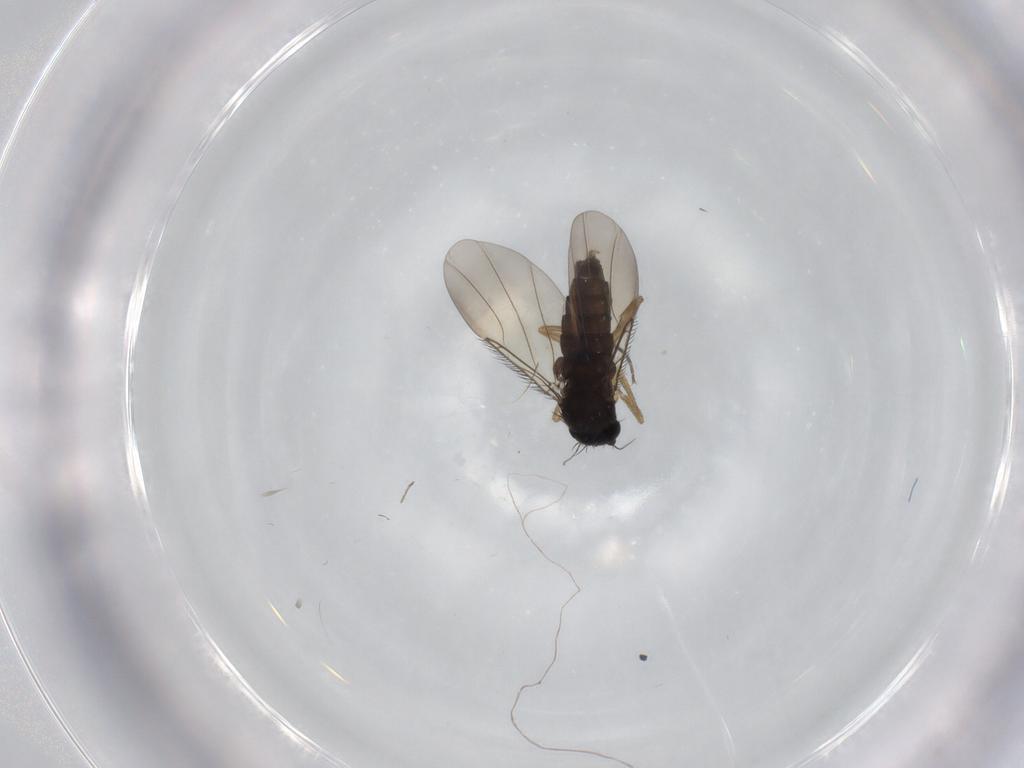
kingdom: Animalia
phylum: Arthropoda
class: Insecta
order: Diptera
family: Phoridae
